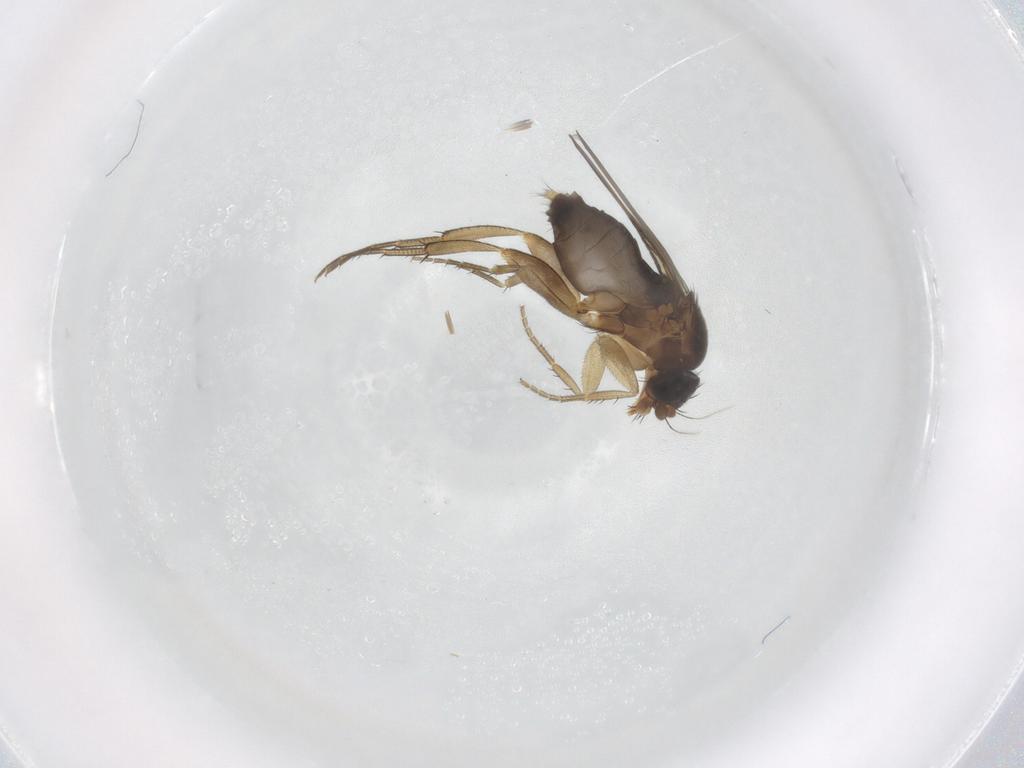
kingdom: Animalia
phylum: Arthropoda
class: Insecta
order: Diptera
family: Phoridae
